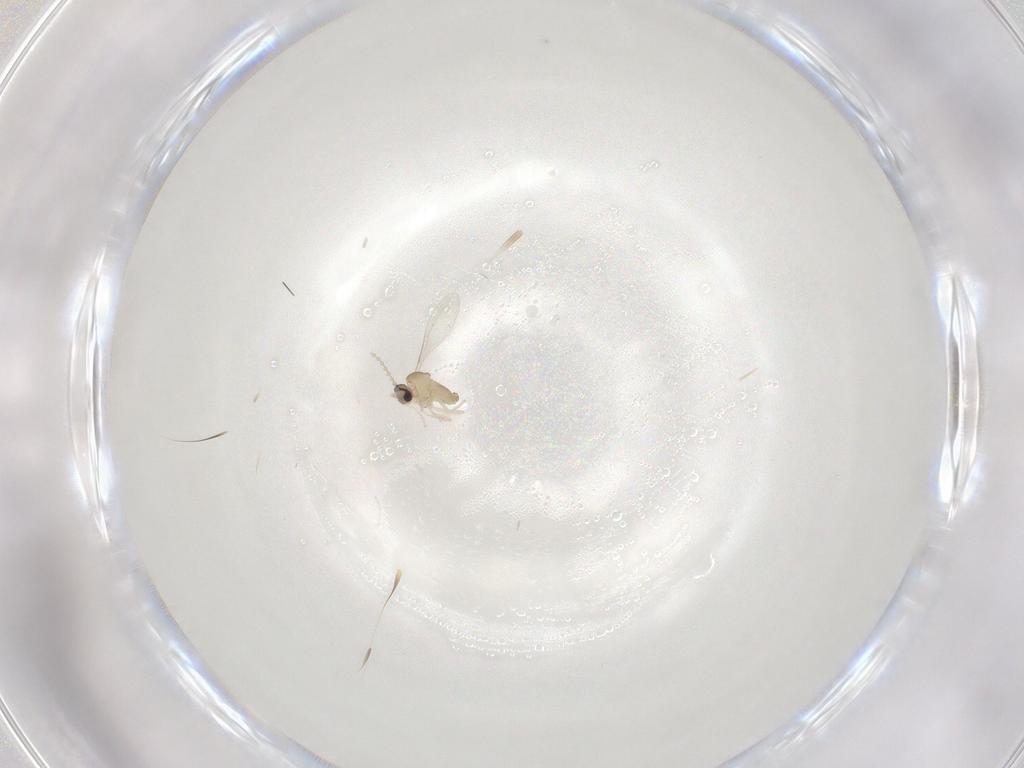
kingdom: Animalia
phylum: Arthropoda
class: Insecta
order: Diptera
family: Cecidomyiidae
